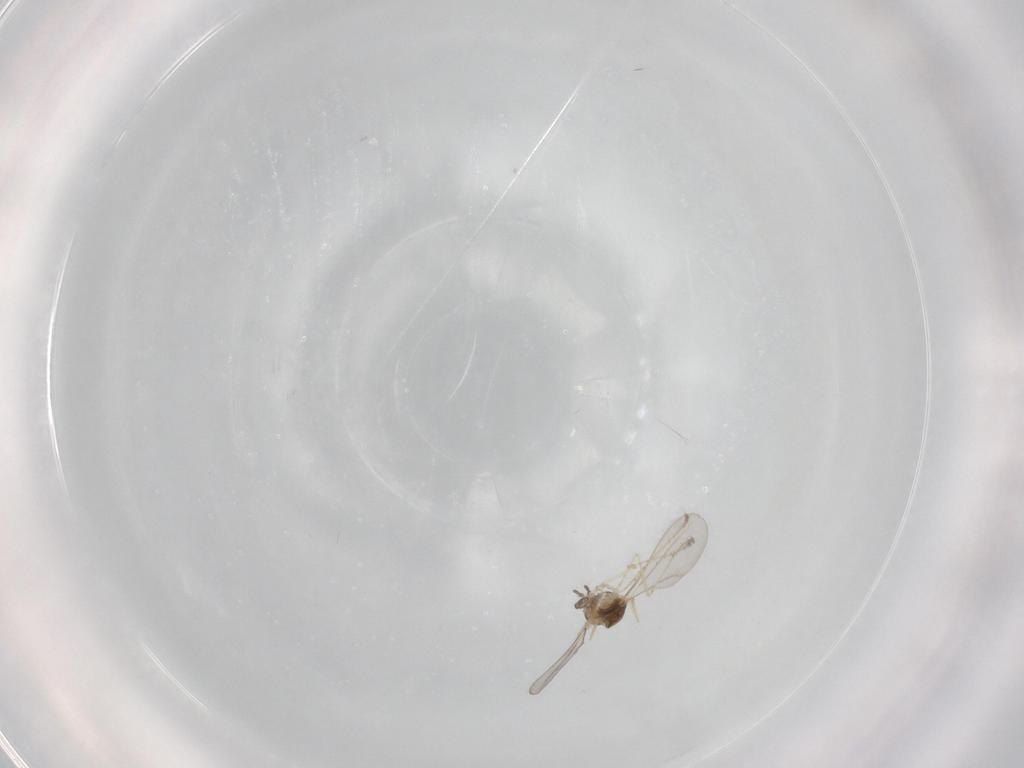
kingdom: Animalia
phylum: Arthropoda
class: Insecta
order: Diptera
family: Cecidomyiidae
